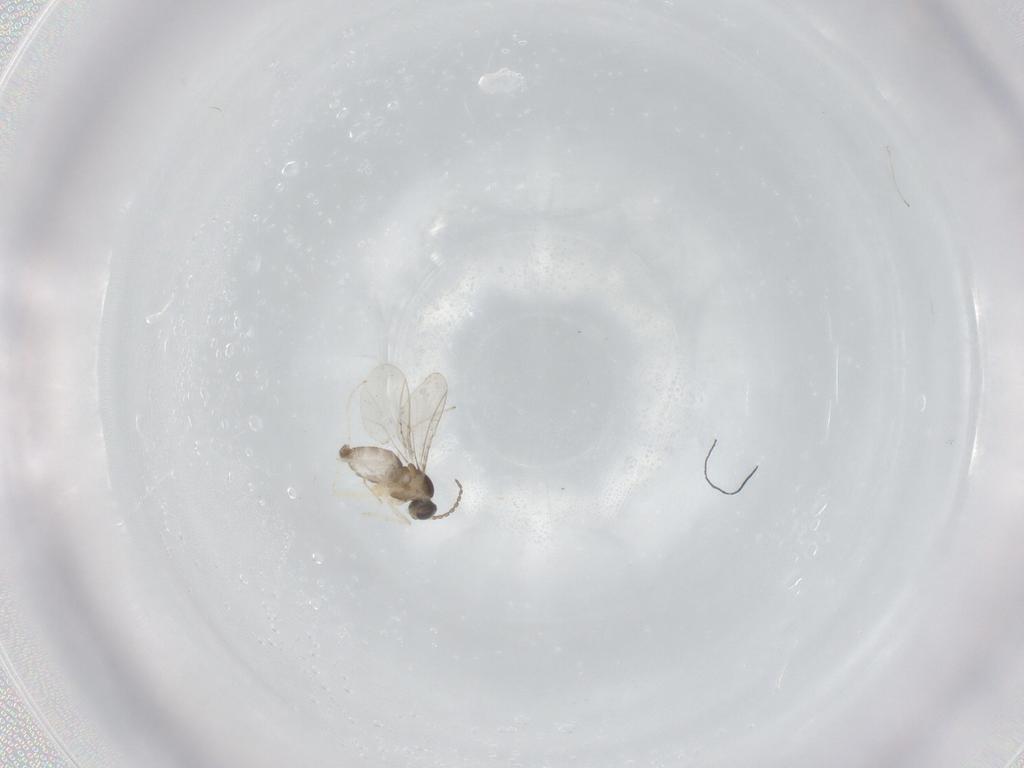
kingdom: Animalia
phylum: Arthropoda
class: Insecta
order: Diptera
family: Cecidomyiidae
